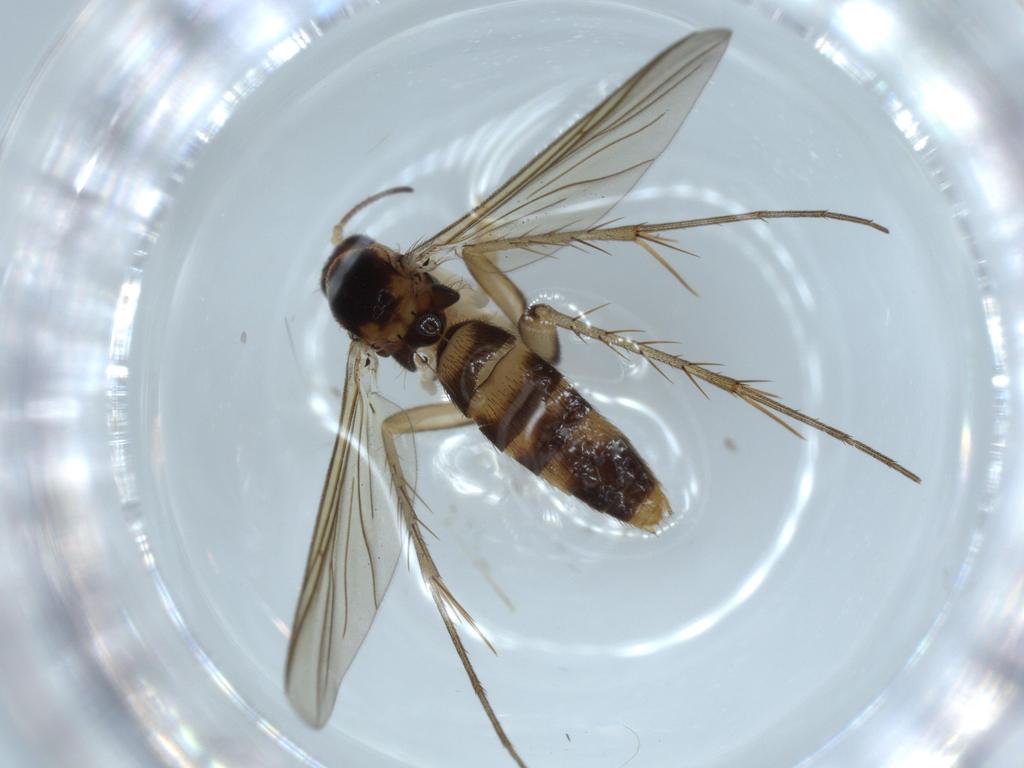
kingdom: Animalia
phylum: Arthropoda
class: Insecta
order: Diptera
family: Mycetophilidae
